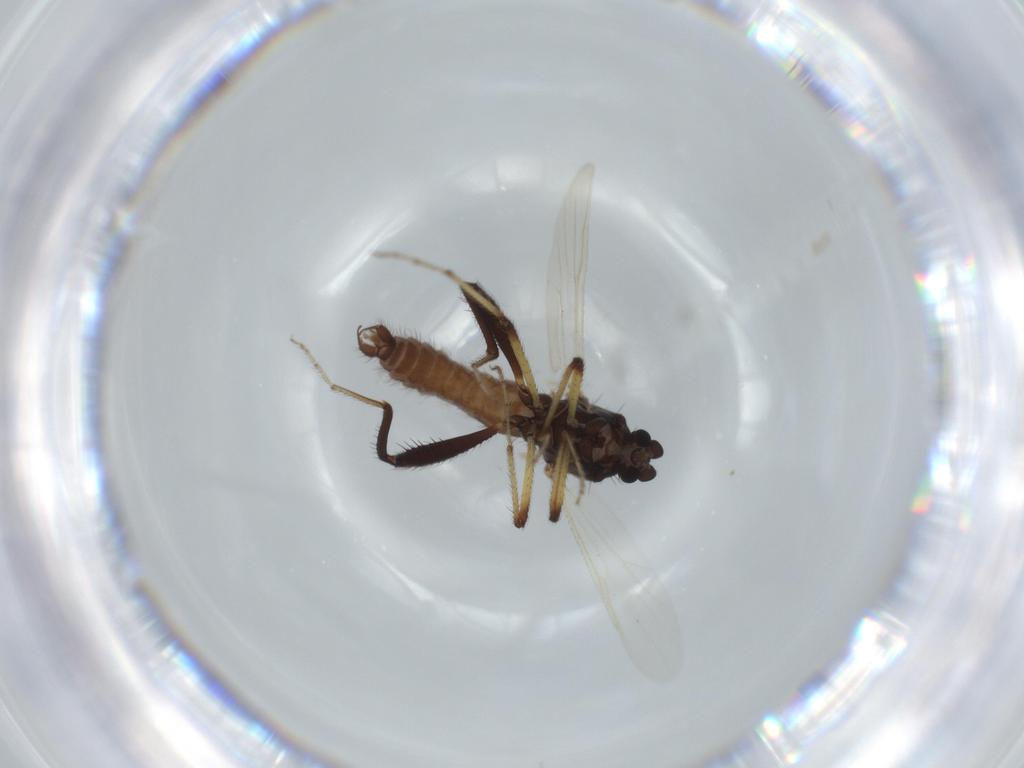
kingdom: Animalia
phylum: Arthropoda
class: Insecta
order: Diptera
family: Ceratopogonidae
